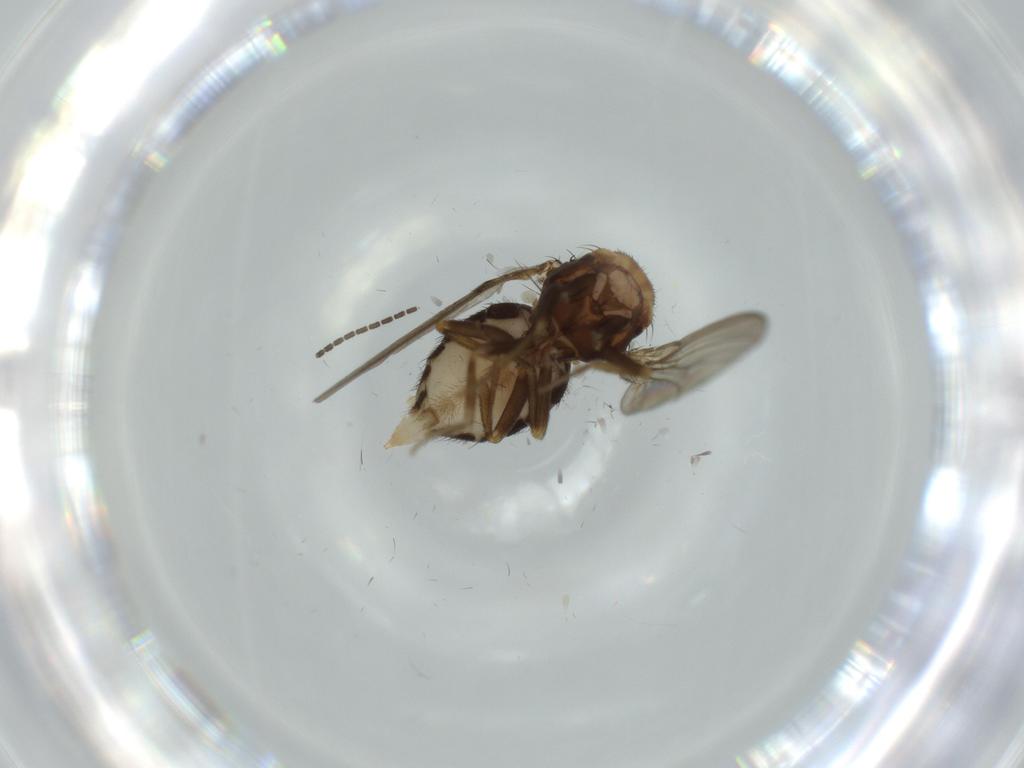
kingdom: Animalia
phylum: Arthropoda
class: Insecta
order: Diptera
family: Drosophilidae
